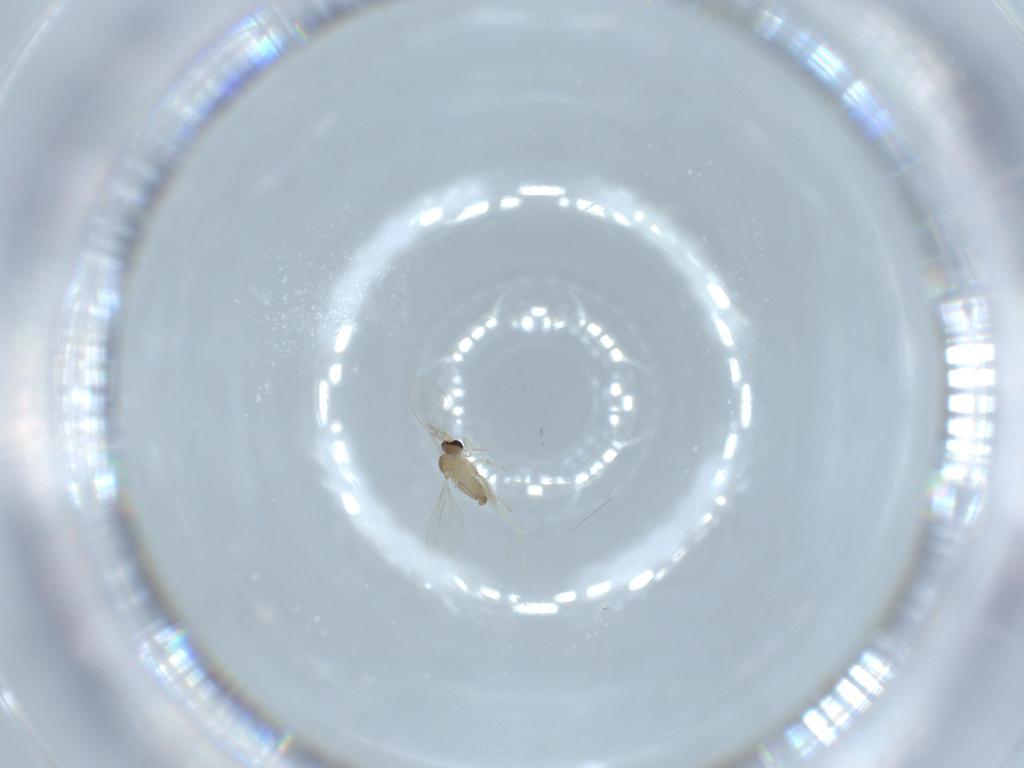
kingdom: Animalia
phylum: Arthropoda
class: Insecta
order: Diptera
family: Cecidomyiidae
